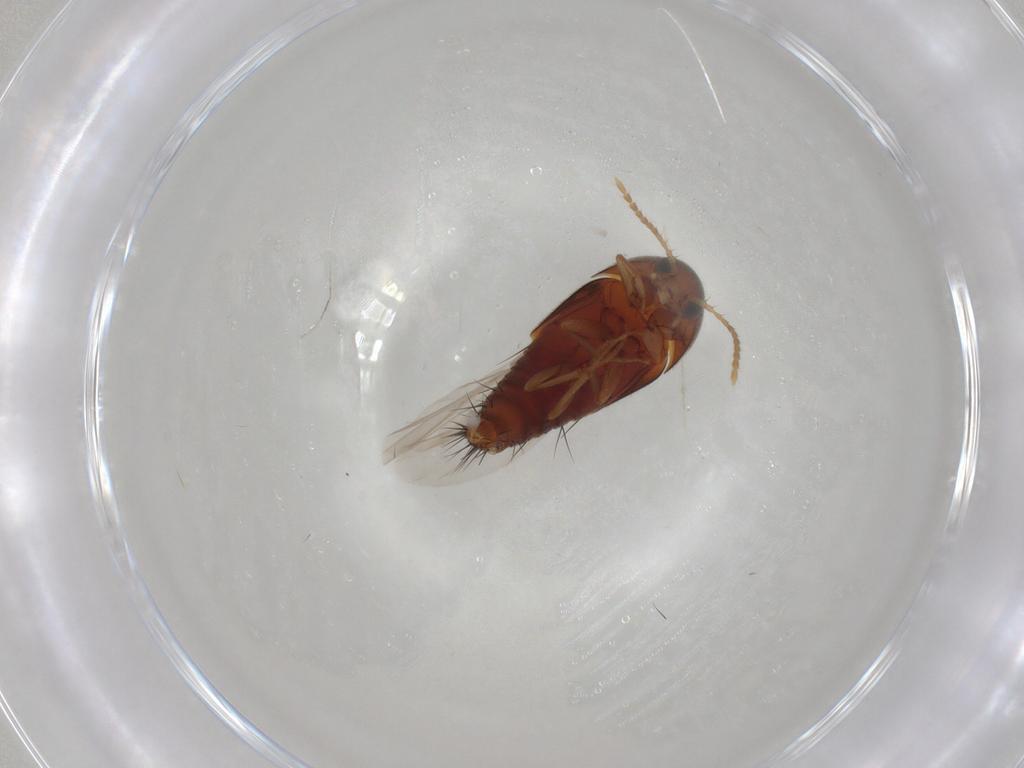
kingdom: Animalia
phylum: Arthropoda
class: Insecta
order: Coleoptera
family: Staphylinidae
